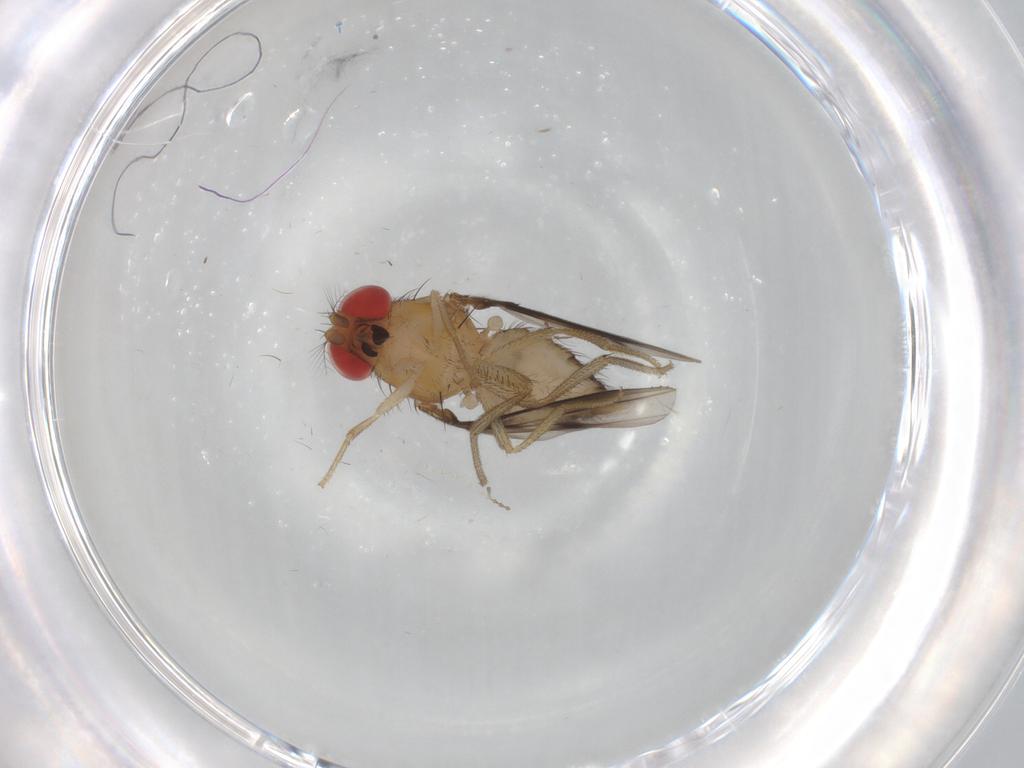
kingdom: Animalia
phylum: Arthropoda
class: Insecta
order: Diptera
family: Drosophilidae
